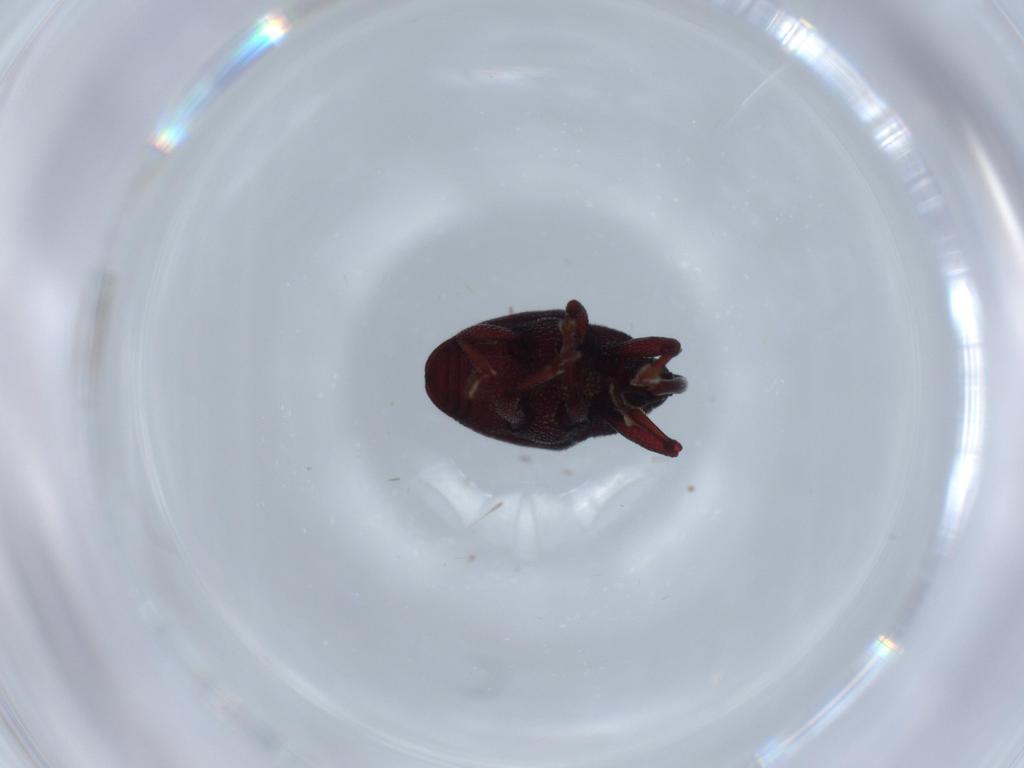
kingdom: Animalia
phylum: Arthropoda
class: Insecta
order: Coleoptera
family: Curculionidae
